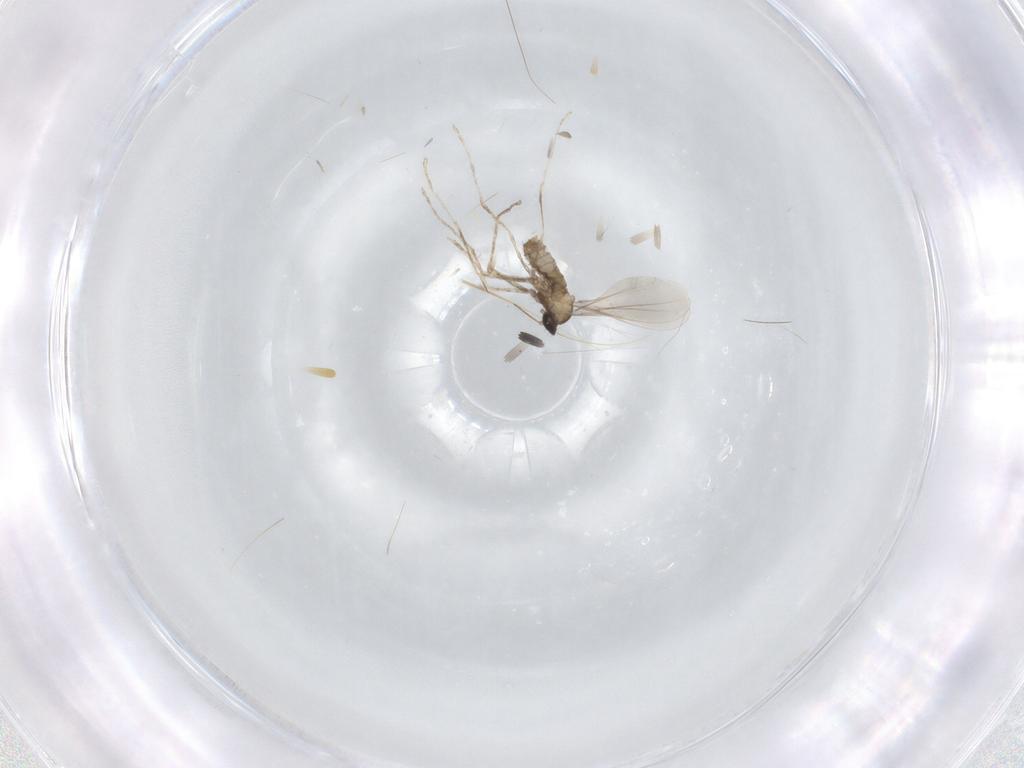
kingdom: Animalia
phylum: Arthropoda
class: Insecta
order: Diptera
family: Cecidomyiidae
